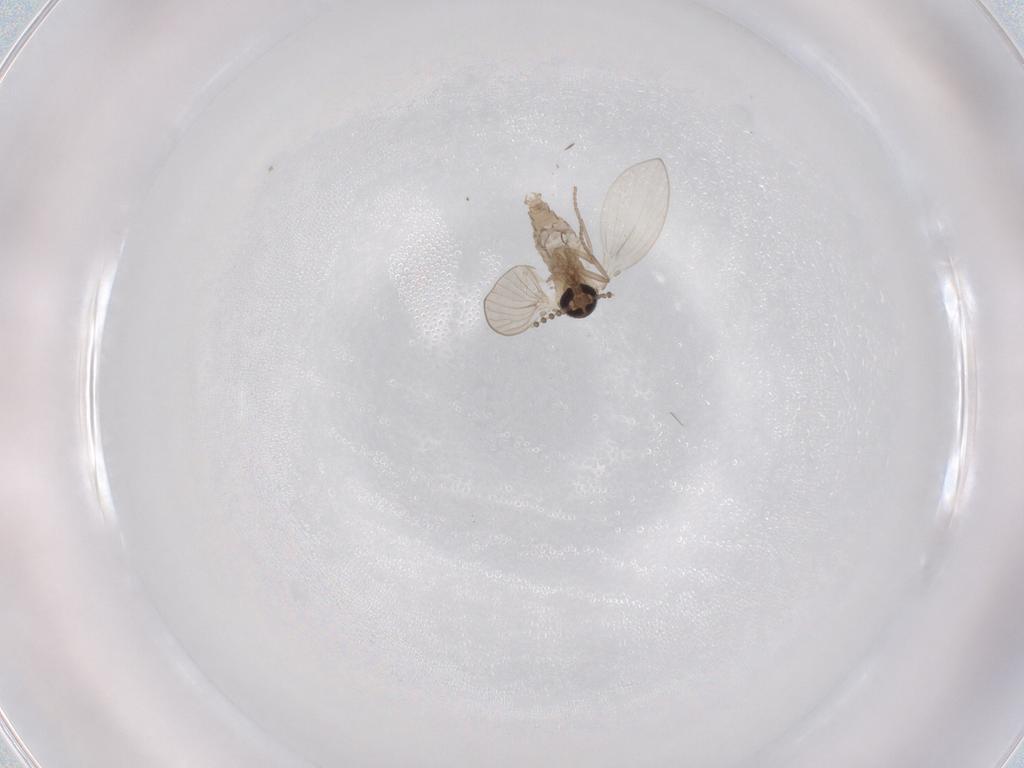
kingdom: Animalia
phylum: Arthropoda
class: Insecta
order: Diptera
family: Psychodidae
